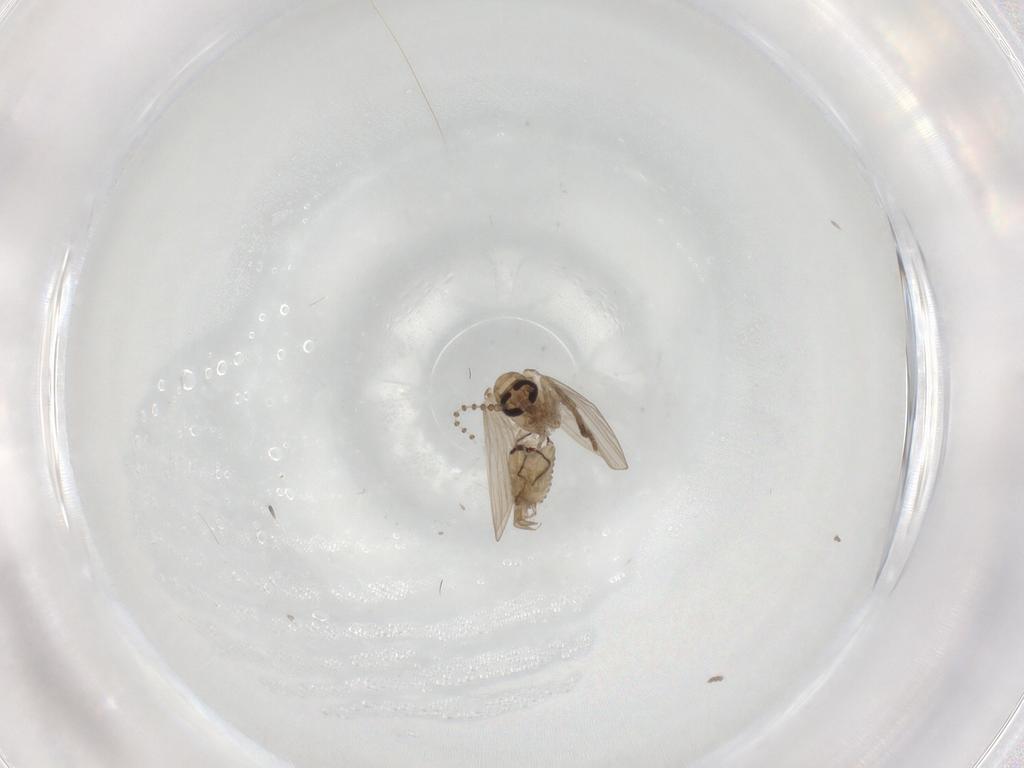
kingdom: Animalia
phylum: Arthropoda
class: Insecta
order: Diptera
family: Psychodidae
